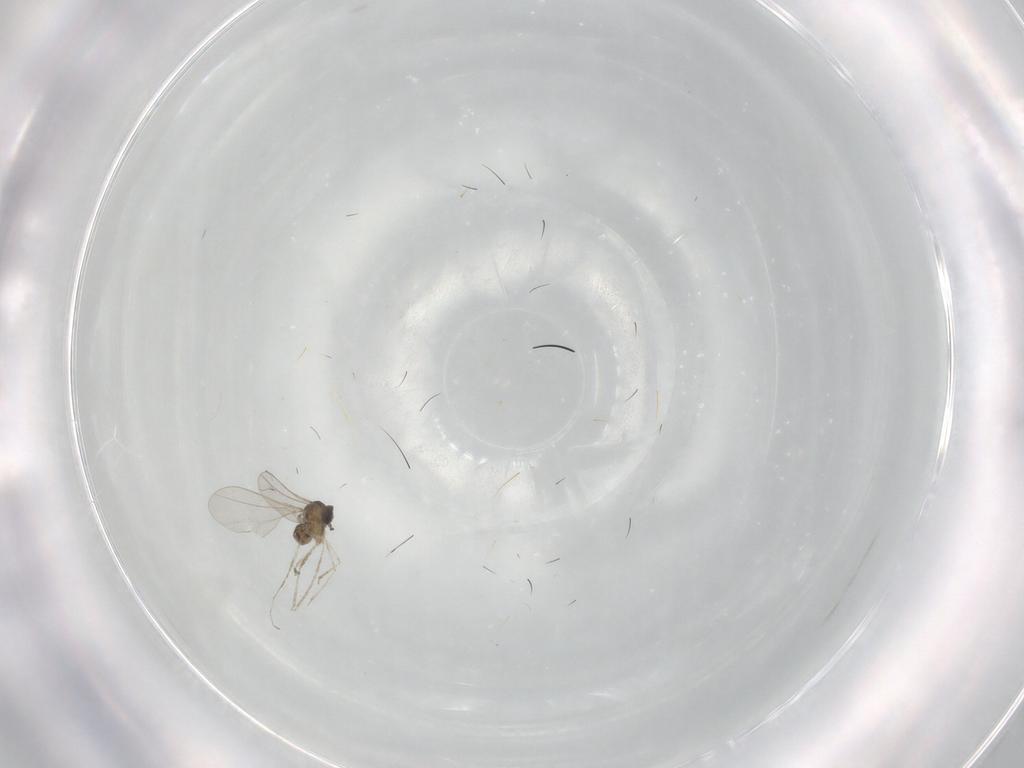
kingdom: Animalia
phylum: Arthropoda
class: Insecta
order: Diptera
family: Cecidomyiidae
